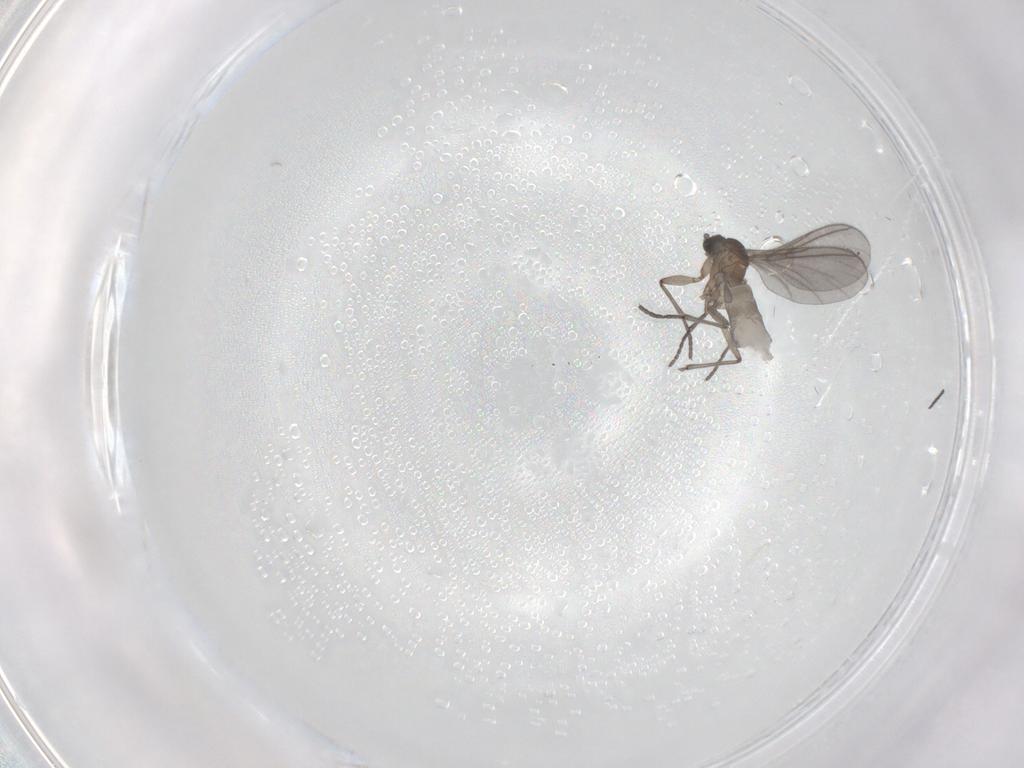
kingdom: Animalia
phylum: Arthropoda
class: Insecta
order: Diptera
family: Sciaridae
